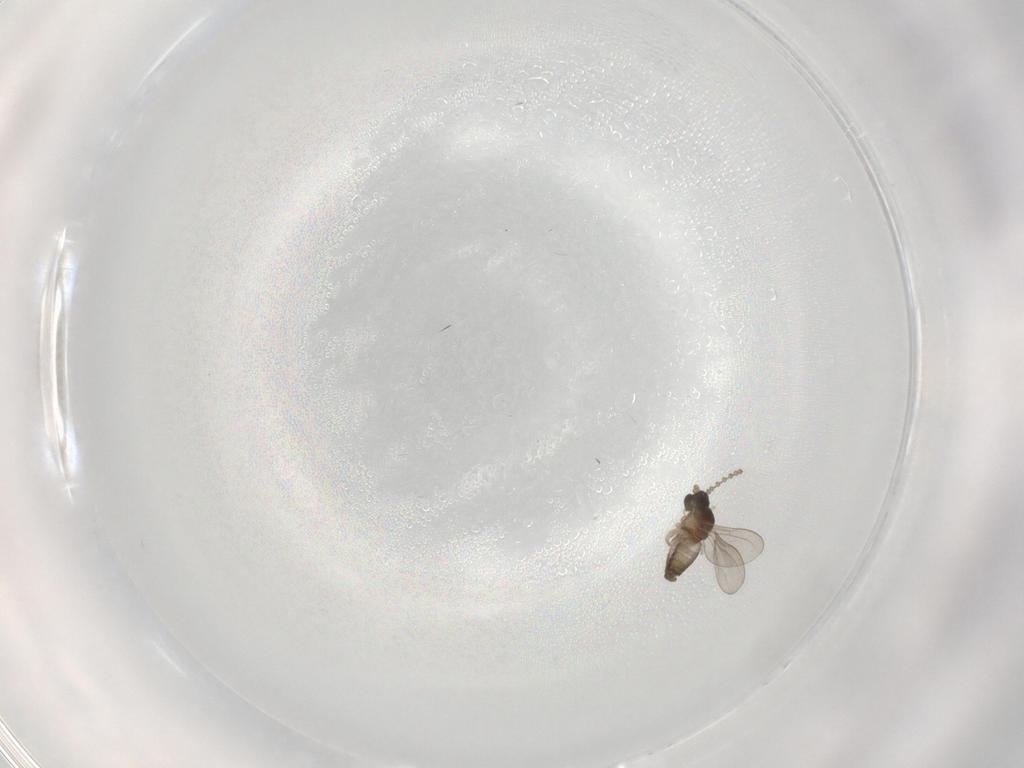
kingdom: Animalia
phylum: Arthropoda
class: Insecta
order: Diptera
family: Cecidomyiidae
